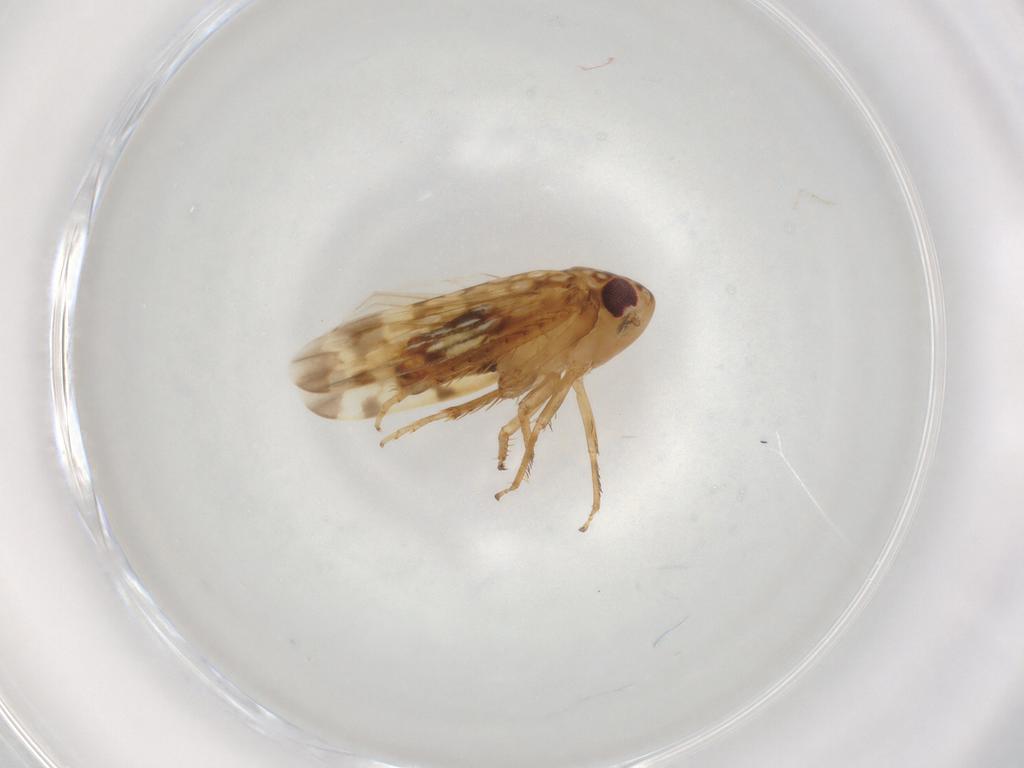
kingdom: Animalia
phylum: Arthropoda
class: Insecta
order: Hemiptera
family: Cicadellidae
